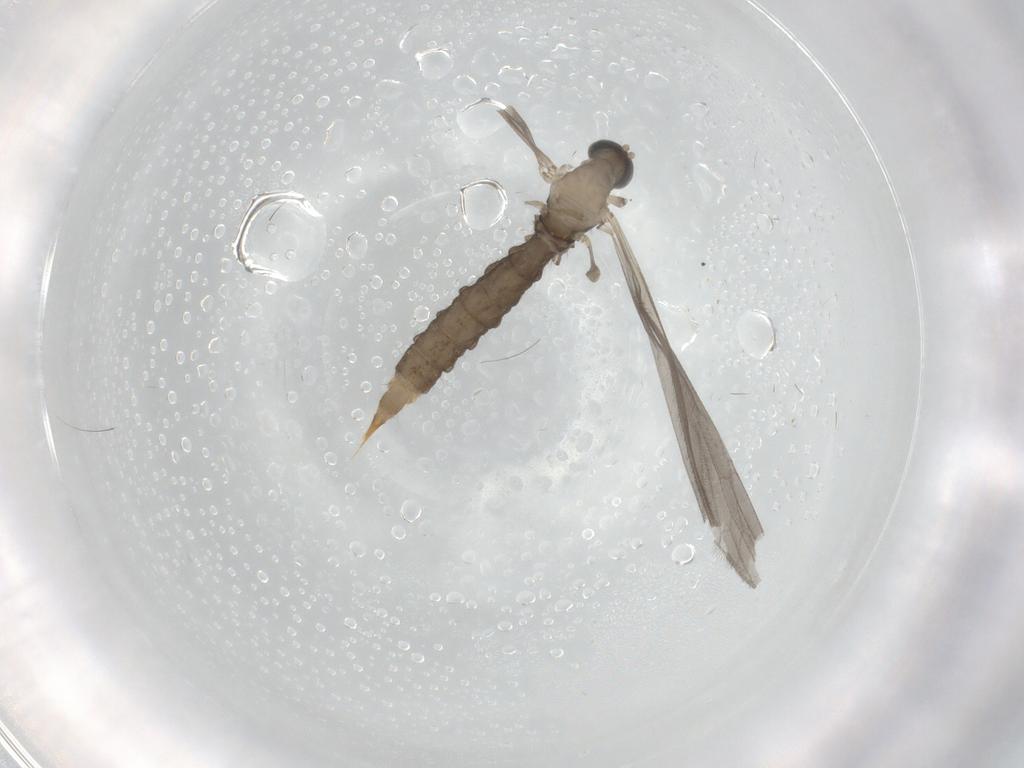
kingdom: Animalia
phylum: Arthropoda
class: Insecta
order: Diptera
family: Limoniidae
